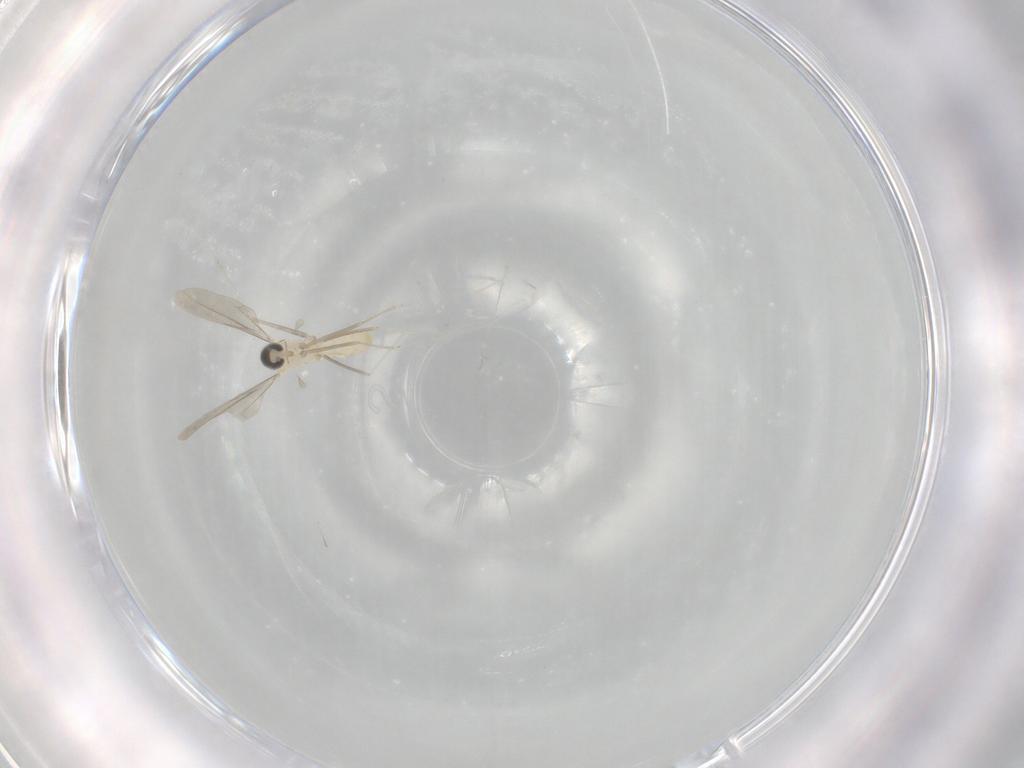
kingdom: Animalia
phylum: Arthropoda
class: Insecta
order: Diptera
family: Cecidomyiidae
